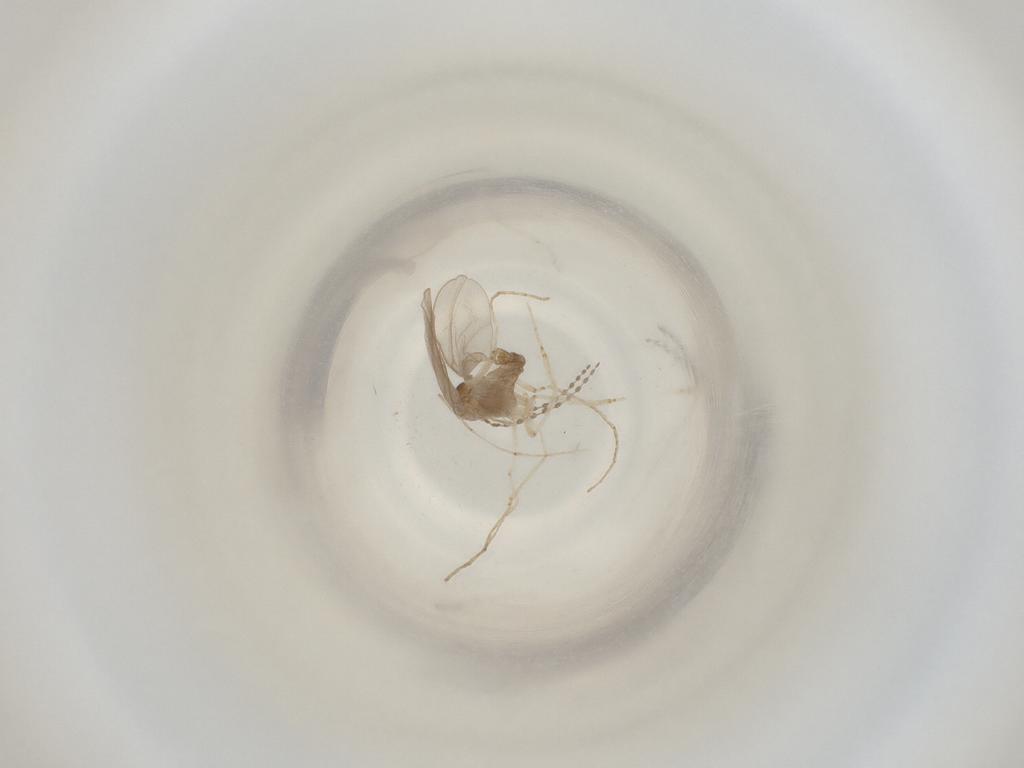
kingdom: Animalia
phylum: Arthropoda
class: Insecta
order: Diptera
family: Cecidomyiidae
